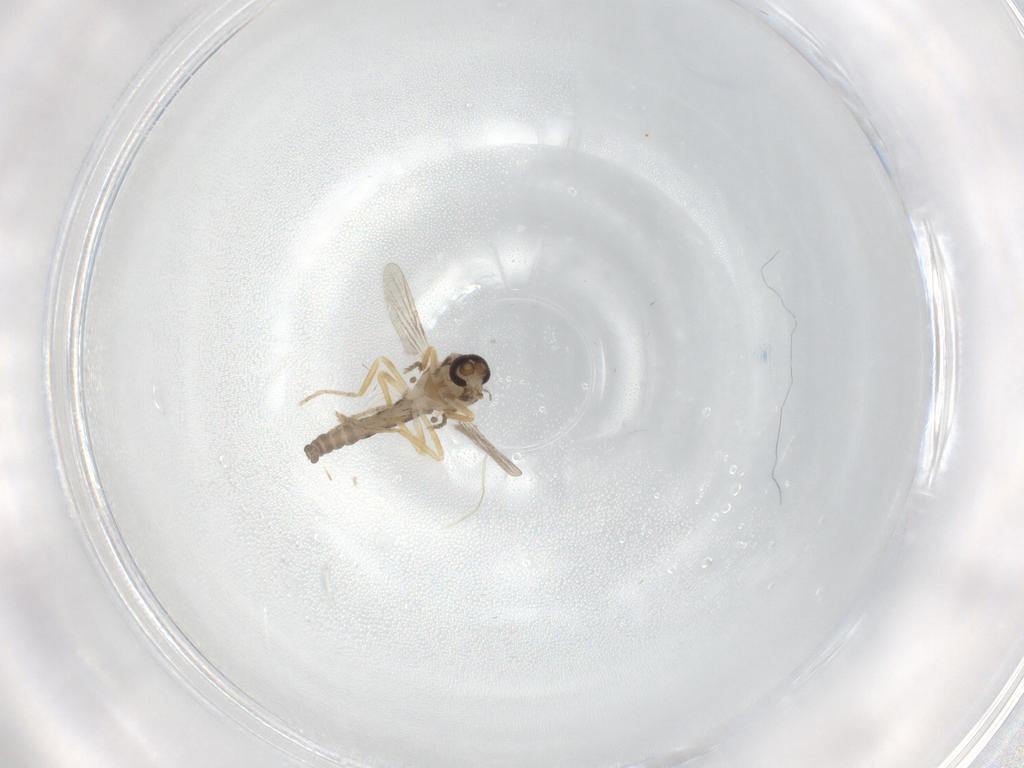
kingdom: Animalia
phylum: Arthropoda
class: Insecta
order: Diptera
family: Ceratopogonidae
